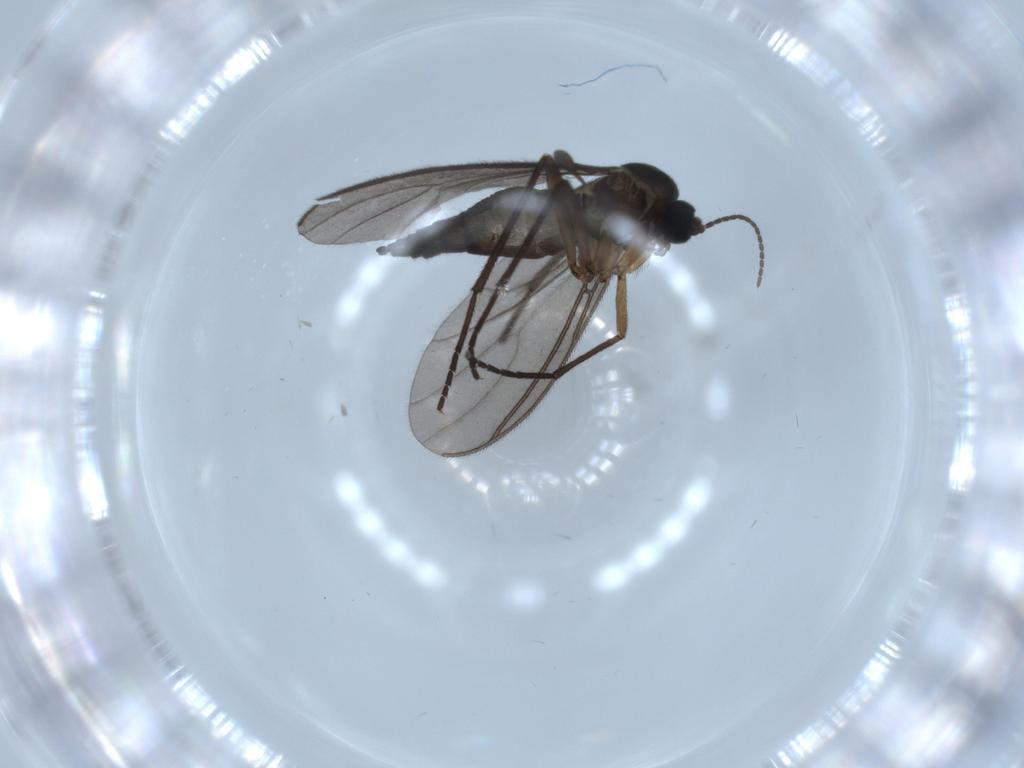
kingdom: Animalia
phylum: Arthropoda
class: Insecta
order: Diptera
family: Sciaridae
